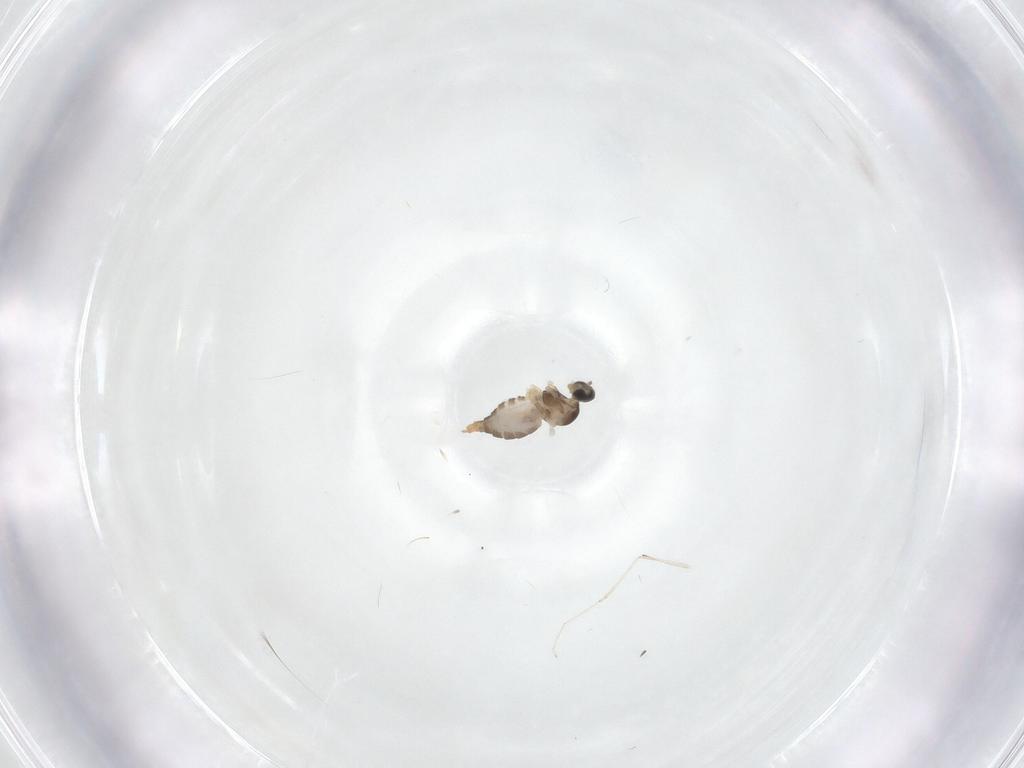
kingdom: Animalia
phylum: Arthropoda
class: Insecta
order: Diptera
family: Cecidomyiidae
